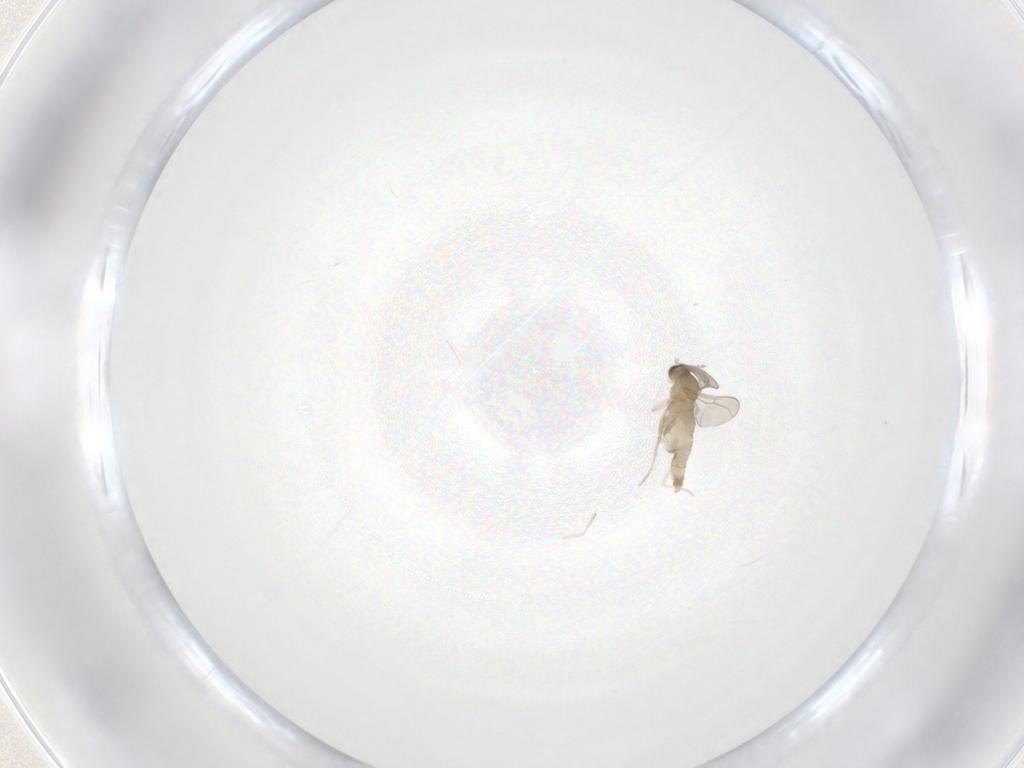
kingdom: Animalia
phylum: Arthropoda
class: Insecta
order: Diptera
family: Cecidomyiidae
